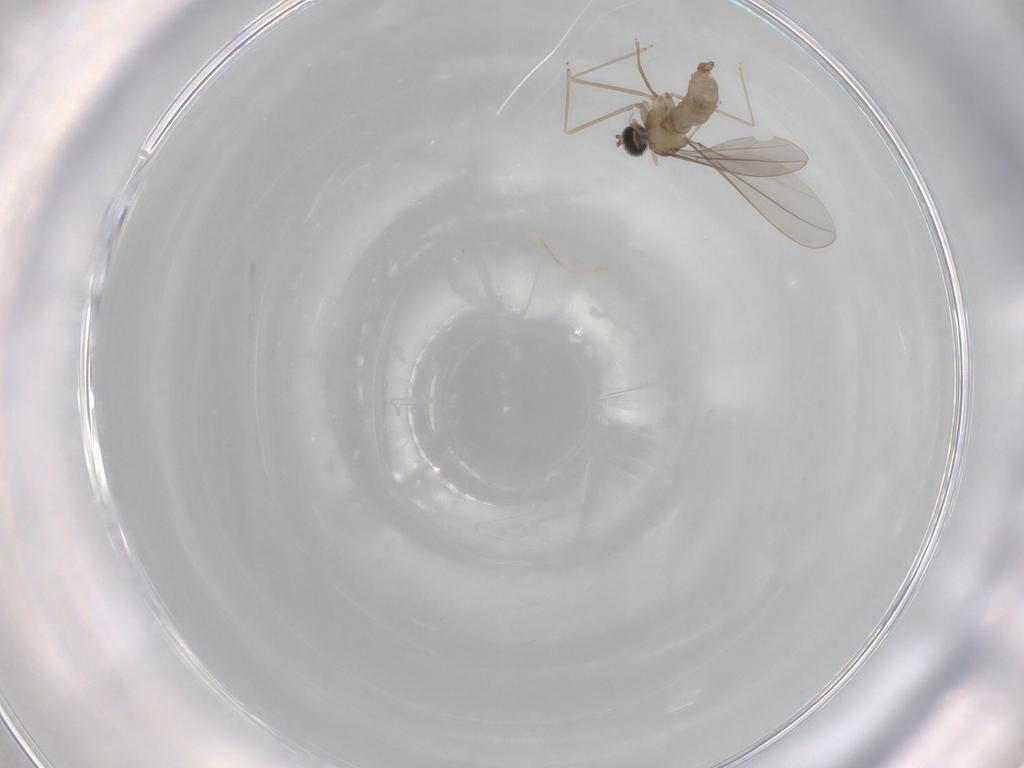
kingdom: Animalia
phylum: Arthropoda
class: Insecta
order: Diptera
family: Cecidomyiidae
